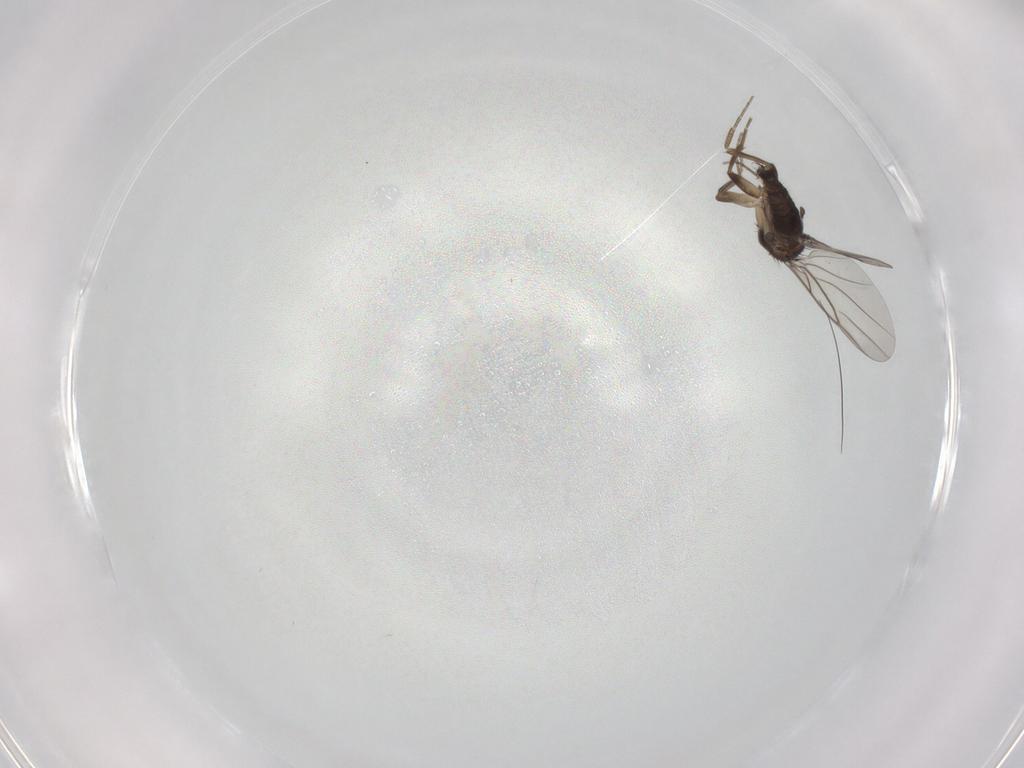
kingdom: Animalia
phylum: Arthropoda
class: Insecta
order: Diptera
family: Phoridae
